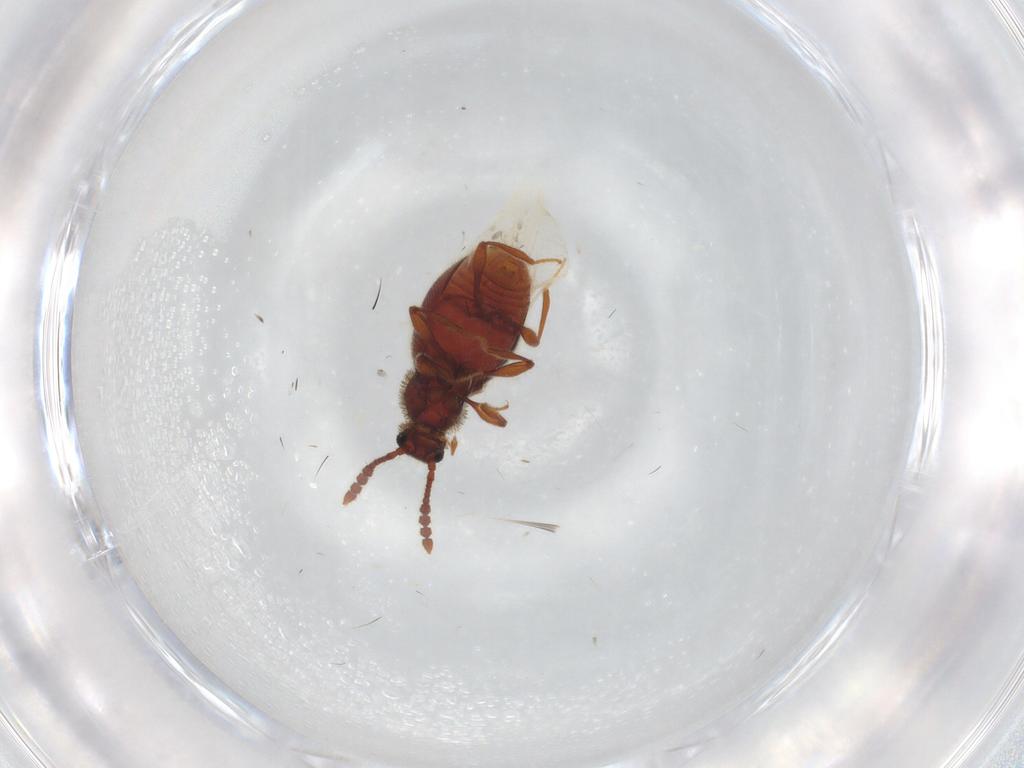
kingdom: Animalia
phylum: Arthropoda
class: Insecta
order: Coleoptera
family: Staphylinidae
